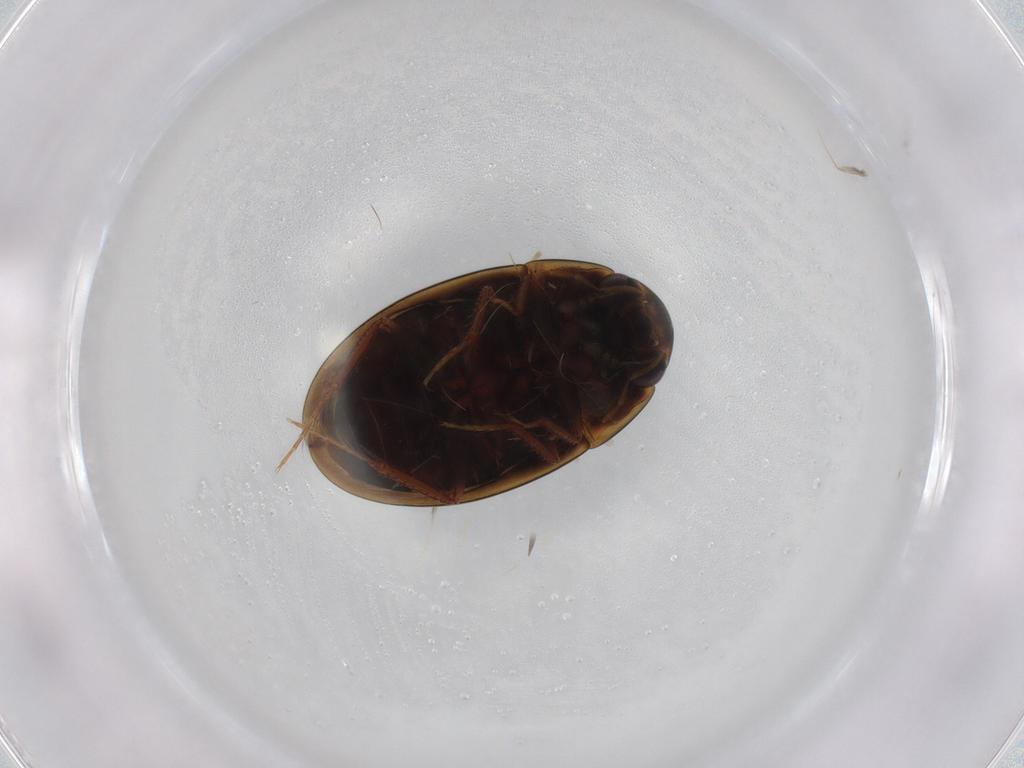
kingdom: Animalia
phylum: Arthropoda
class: Insecta
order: Coleoptera
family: Hydrophilidae
